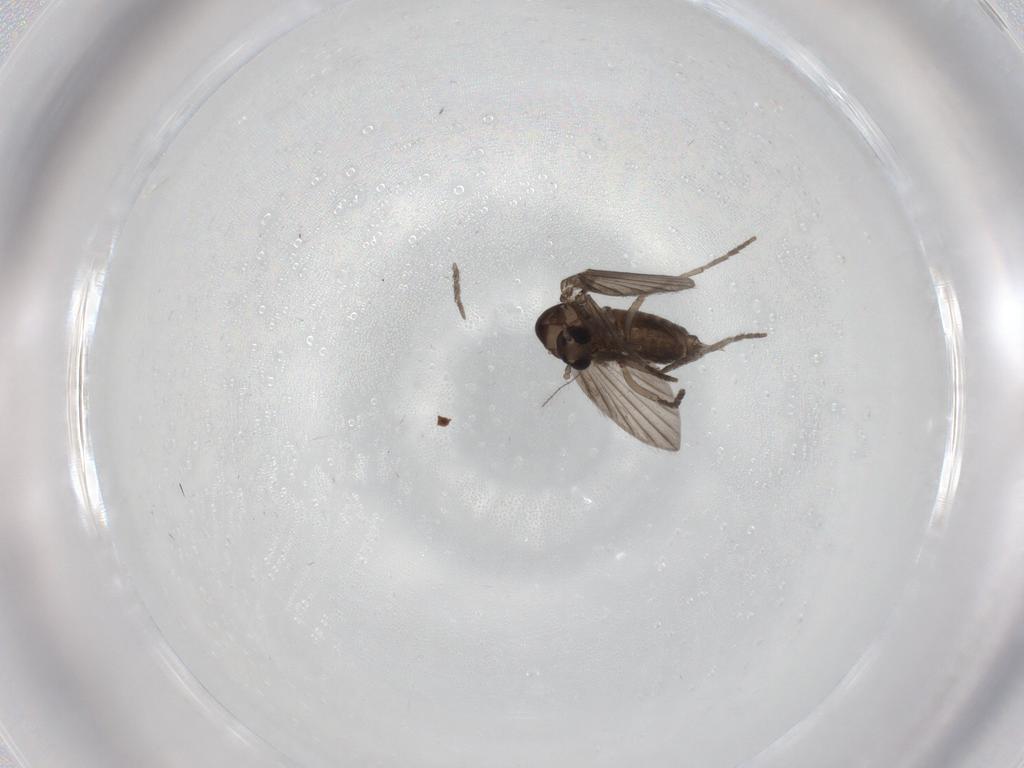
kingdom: Animalia
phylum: Arthropoda
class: Insecta
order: Diptera
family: Psychodidae
